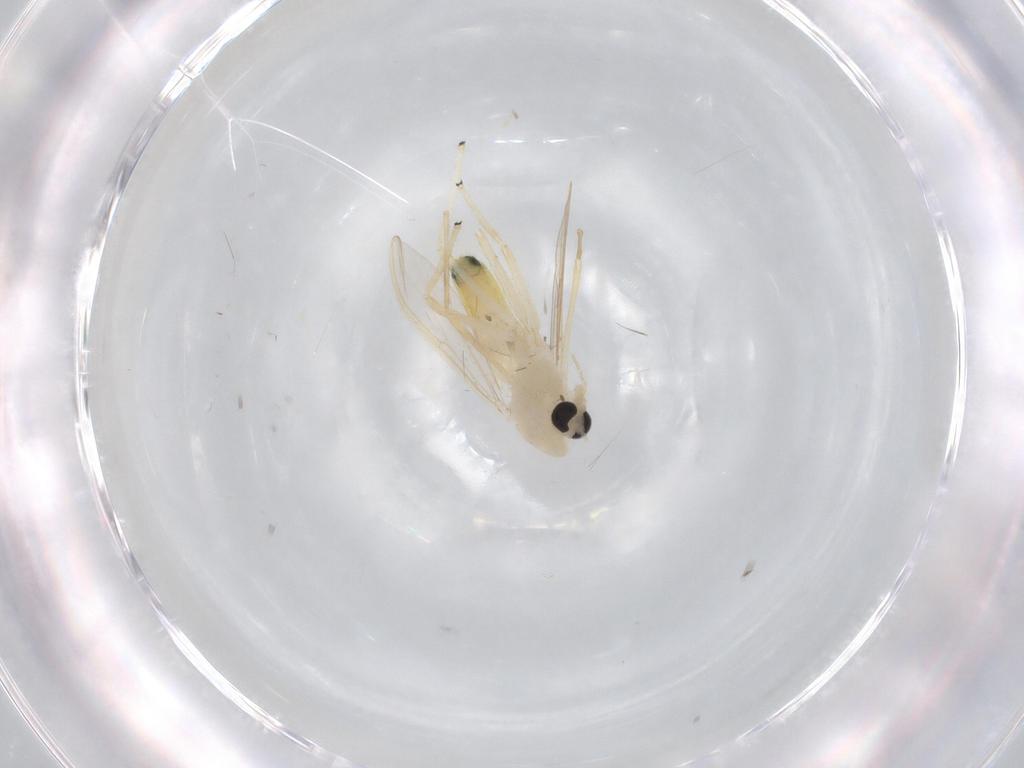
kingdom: Animalia
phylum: Arthropoda
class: Insecta
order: Diptera
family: Chironomidae
